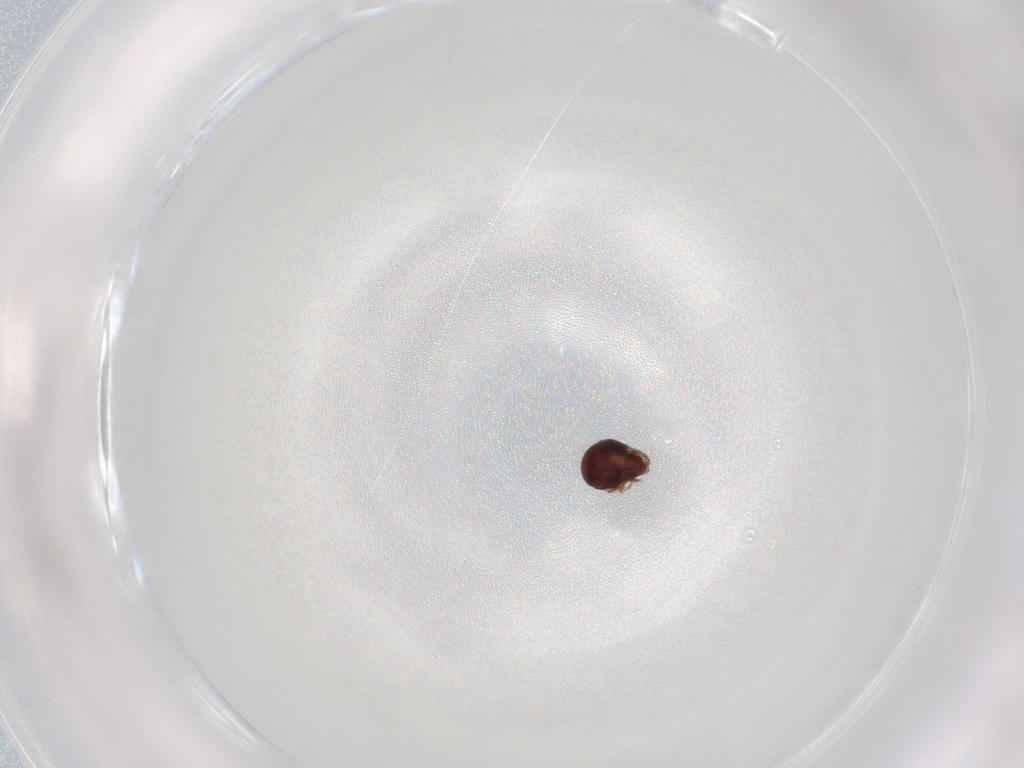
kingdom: Animalia
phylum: Arthropoda
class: Arachnida
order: Sarcoptiformes
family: Humerobatidae
